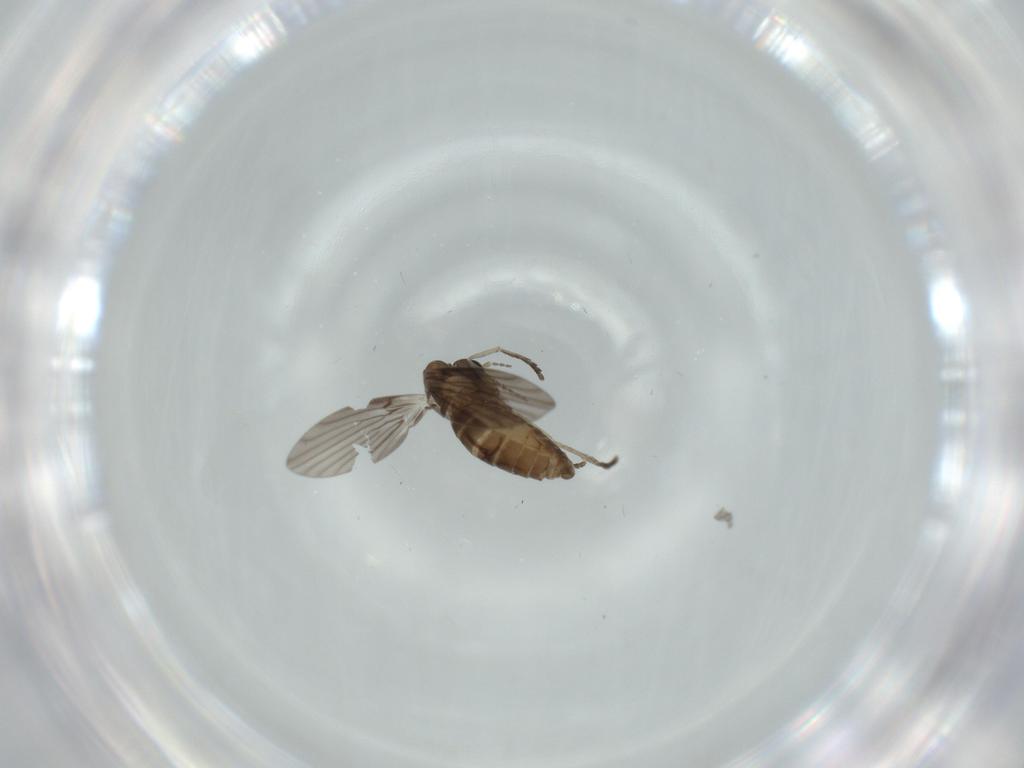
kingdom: Animalia
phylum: Arthropoda
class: Insecta
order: Diptera
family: Psychodidae
